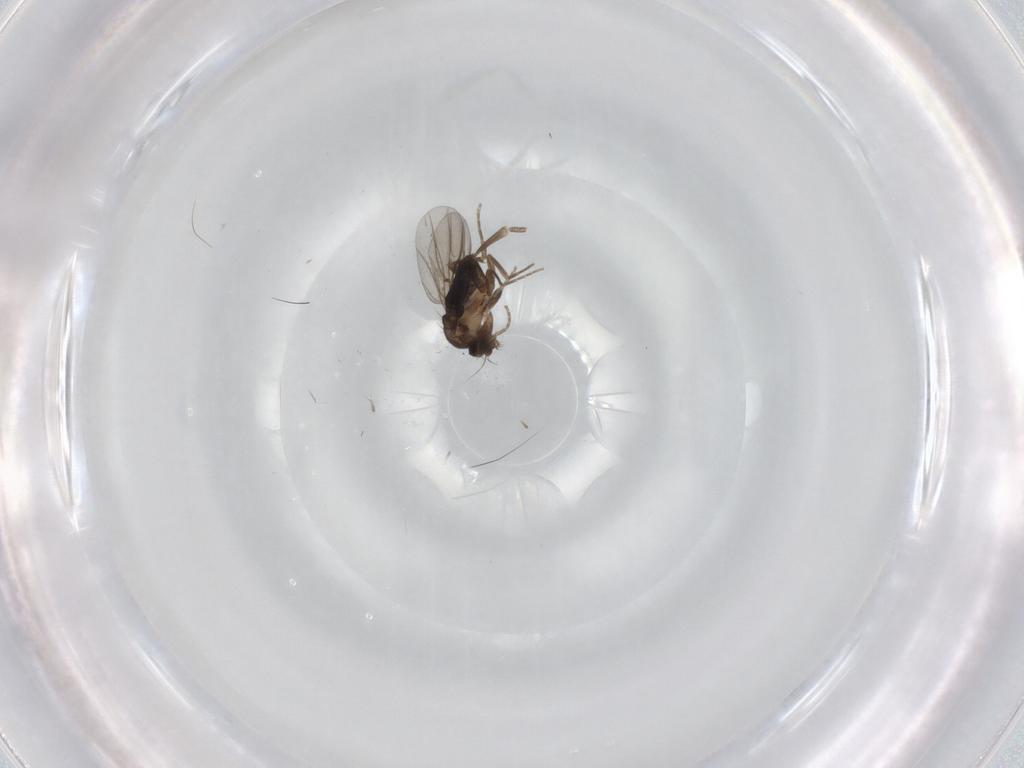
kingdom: Animalia
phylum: Arthropoda
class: Insecta
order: Diptera
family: Phoridae
